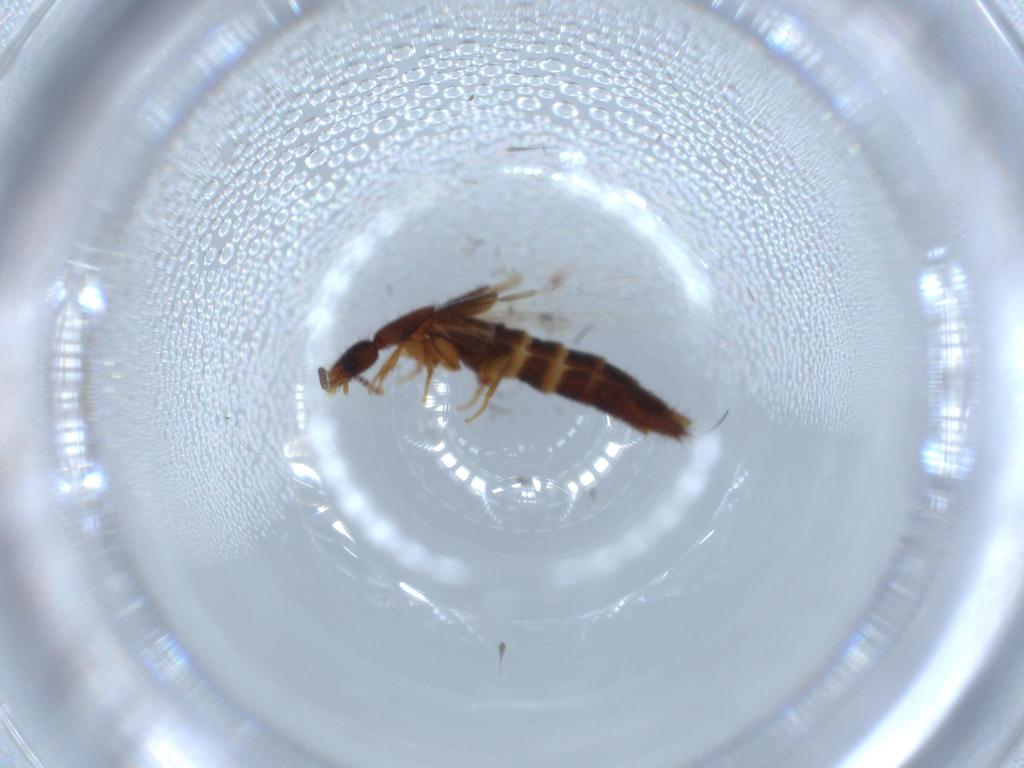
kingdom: Animalia
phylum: Arthropoda
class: Insecta
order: Coleoptera
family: Staphylinidae
